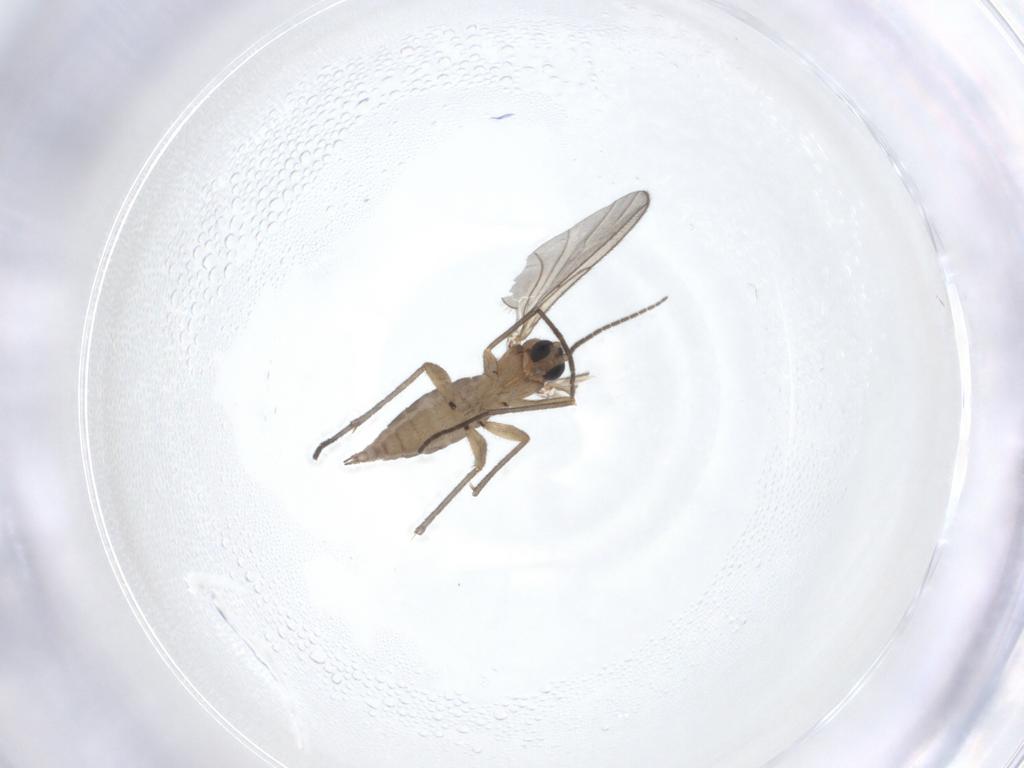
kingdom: Animalia
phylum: Arthropoda
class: Insecta
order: Diptera
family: Sciaridae
